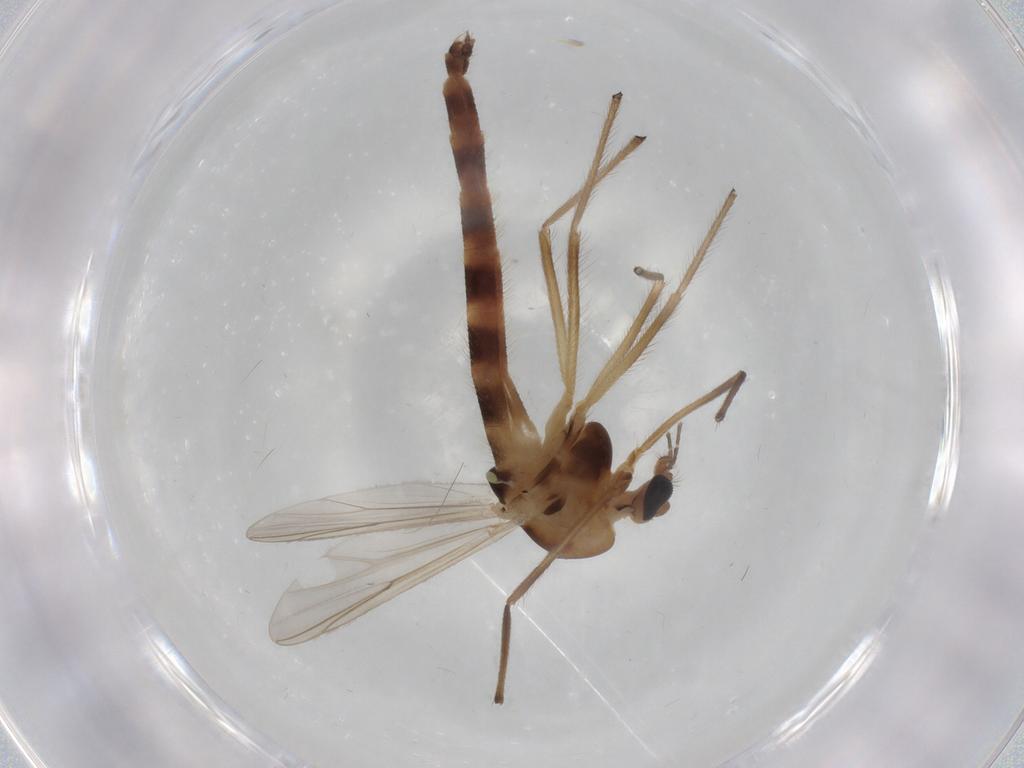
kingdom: Animalia
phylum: Arthropoda
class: Insecta
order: Diptera
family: Chironomidae
